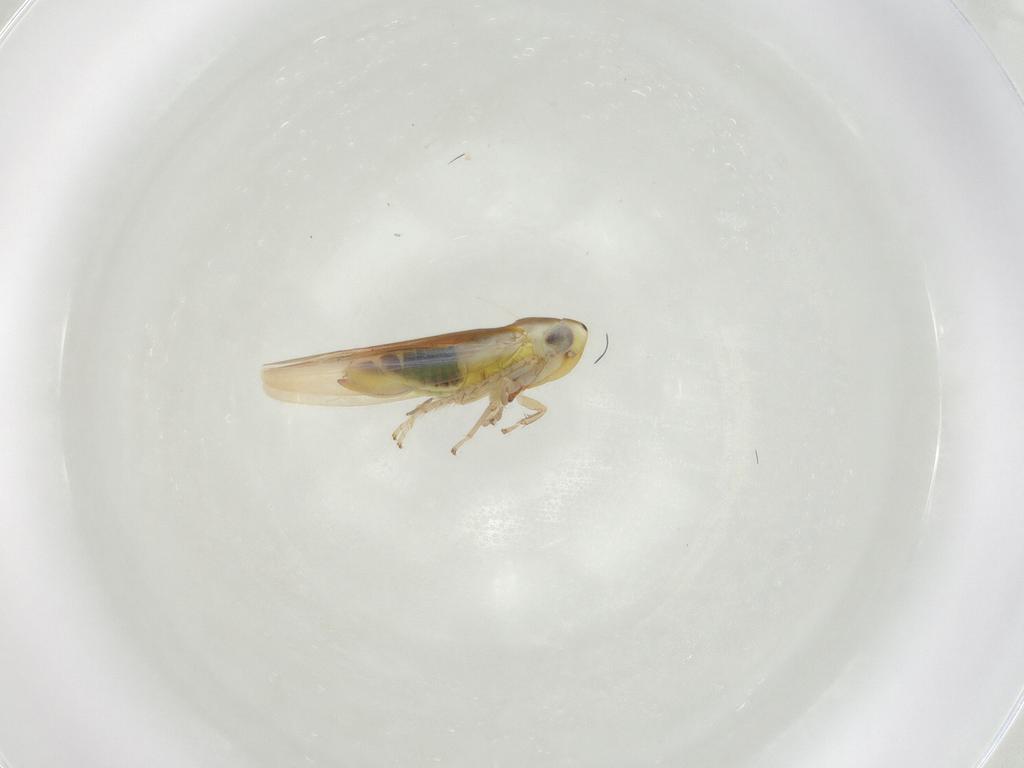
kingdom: Animalia
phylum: Arthropoda
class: Insecta
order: Hemiptera
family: Cicadellidae
